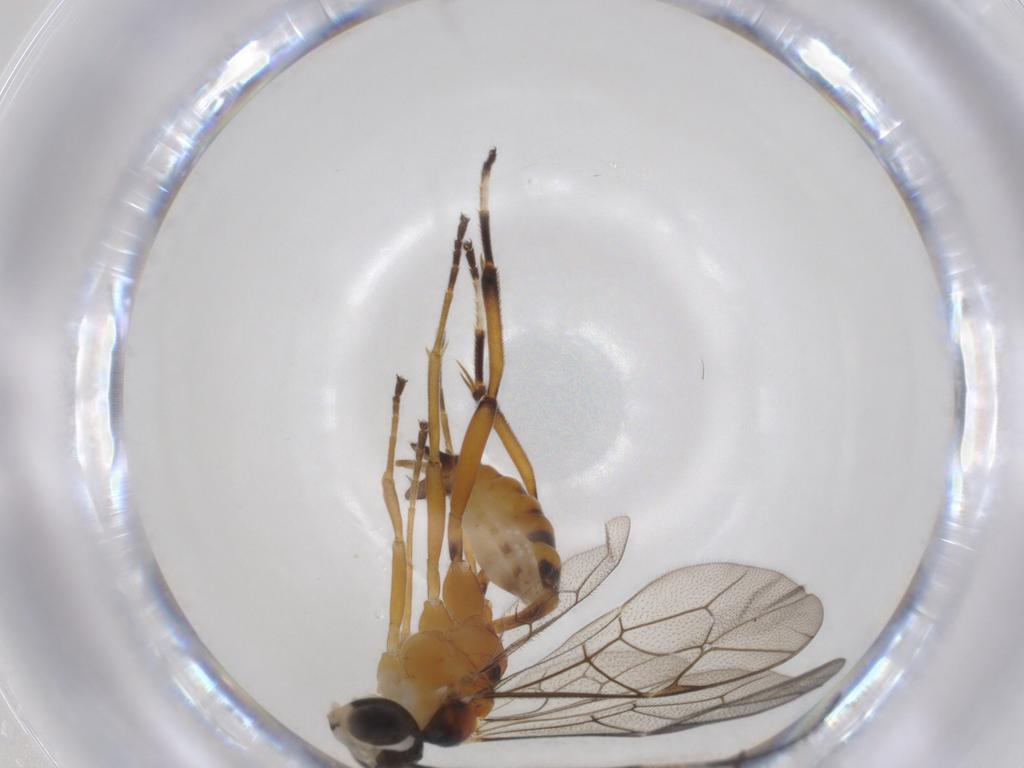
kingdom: Animalia
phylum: Arthropoda
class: Insecta
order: Hymenoptera
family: Ichneumonidae
